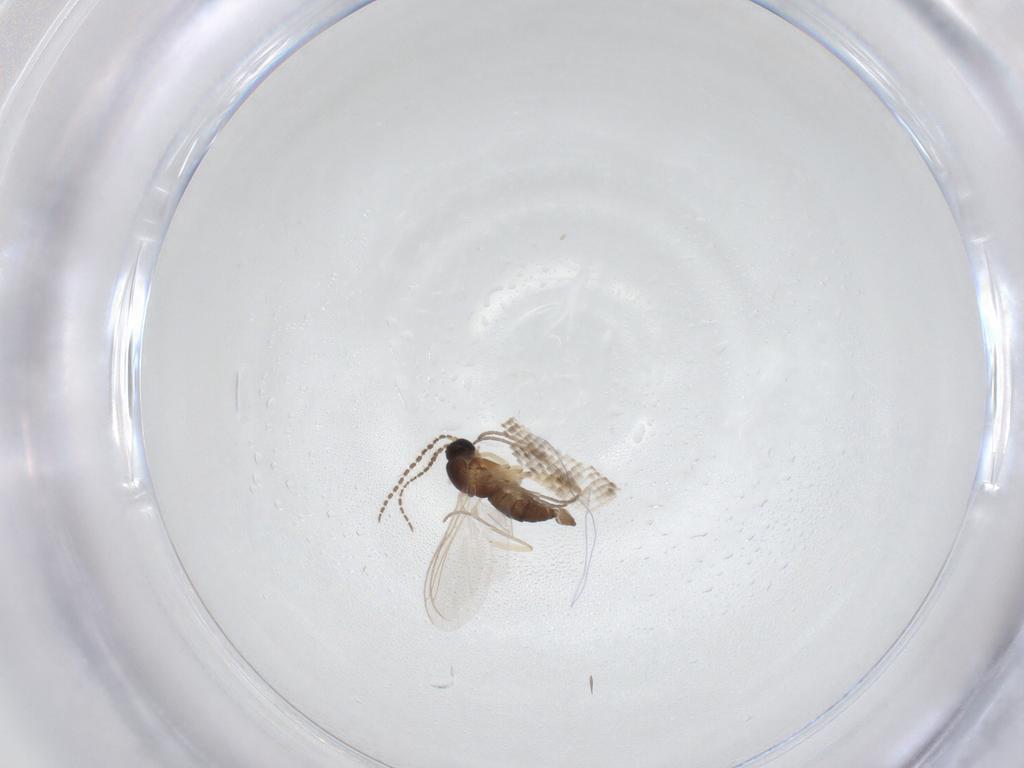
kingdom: Animalia
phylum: Arthropoda
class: Insecta
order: Diptera
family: Sciaridae
